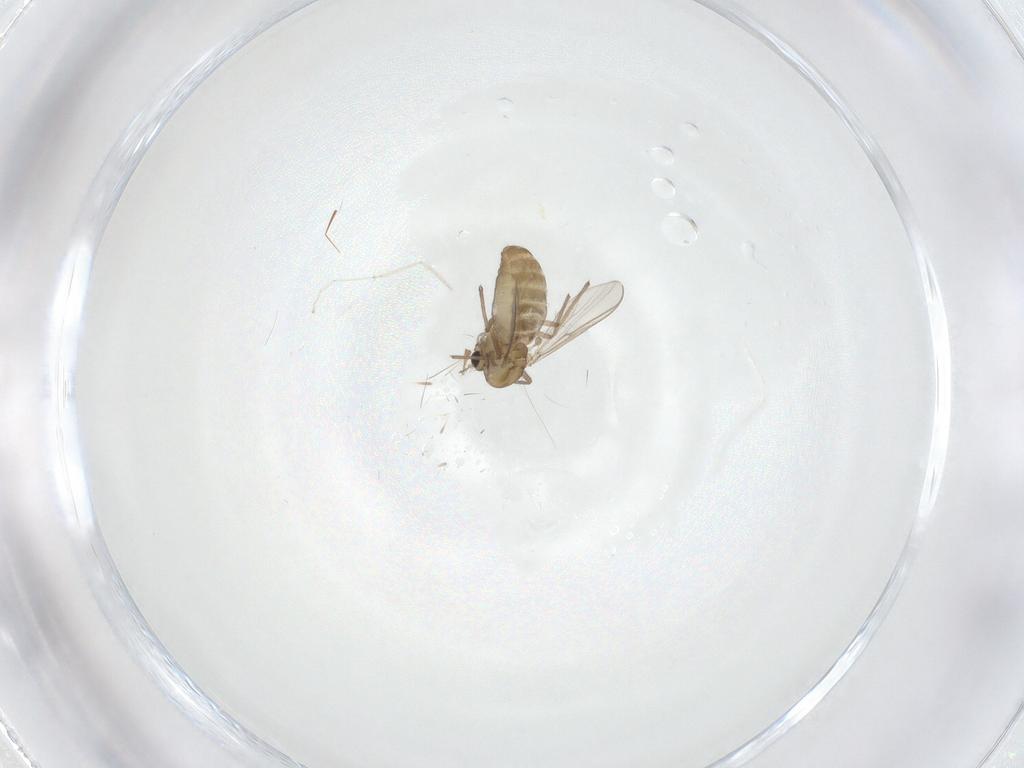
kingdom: Animalia
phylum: Arthropoda
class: Insecta
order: Diptera
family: Chironomidae
